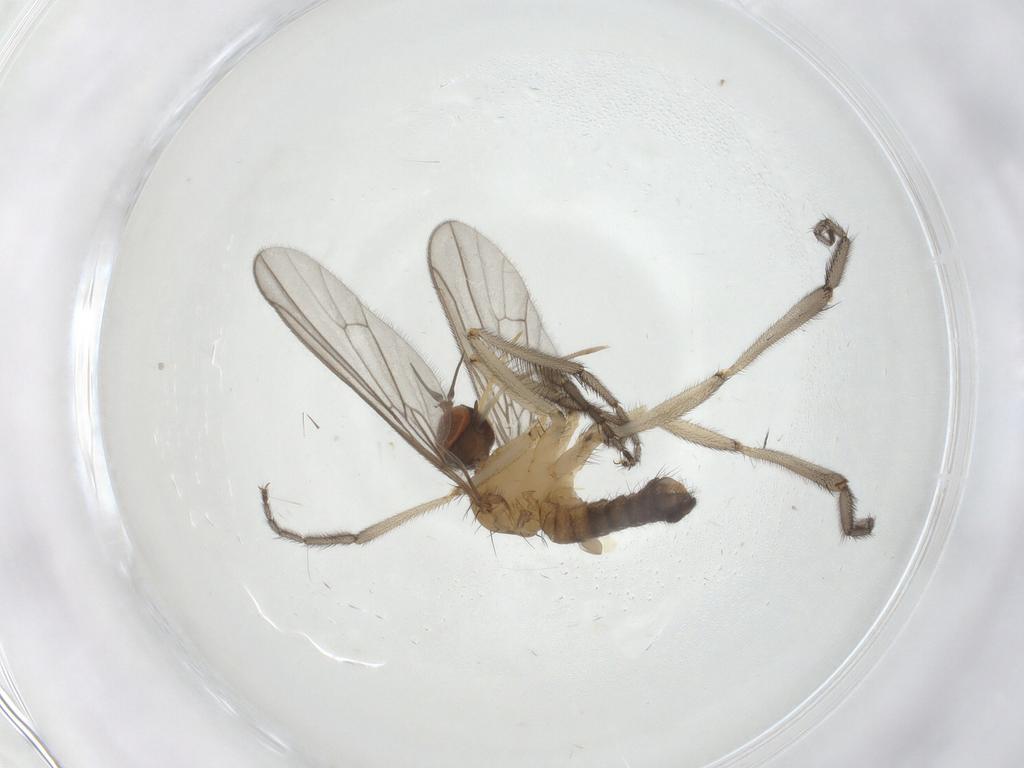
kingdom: Animalia
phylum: Arthropoda
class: Insecta
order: Diptera
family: Empididae
